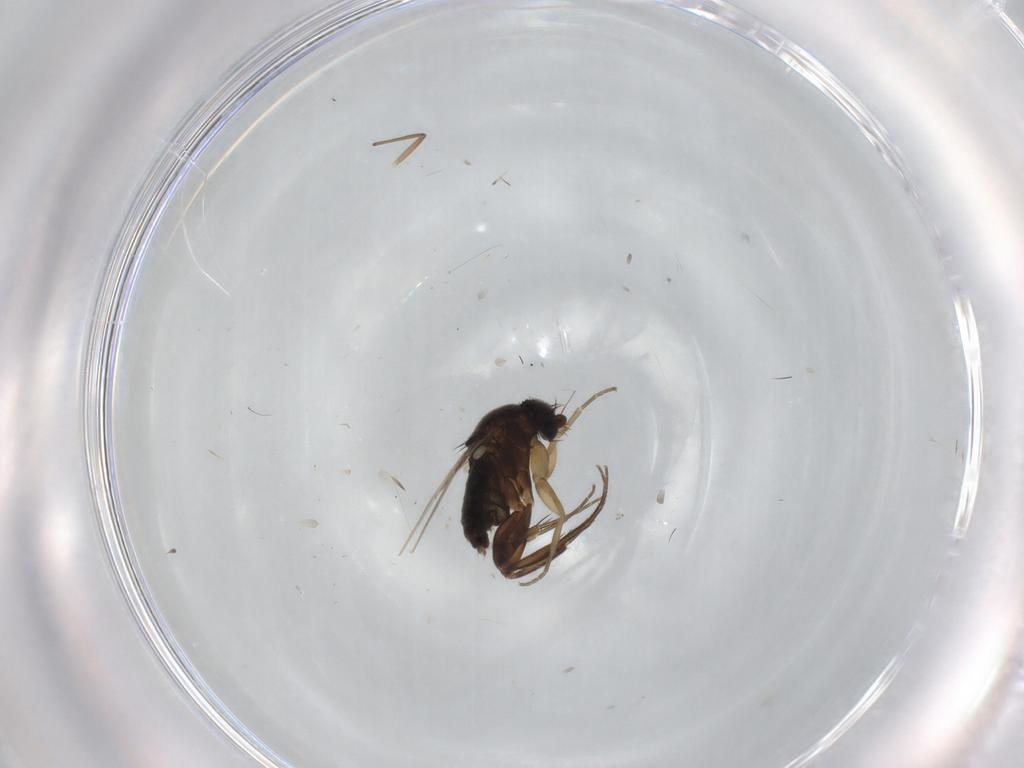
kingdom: Animalia
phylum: Arthropoda
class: Insecta
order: Diptera
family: Phoridae
